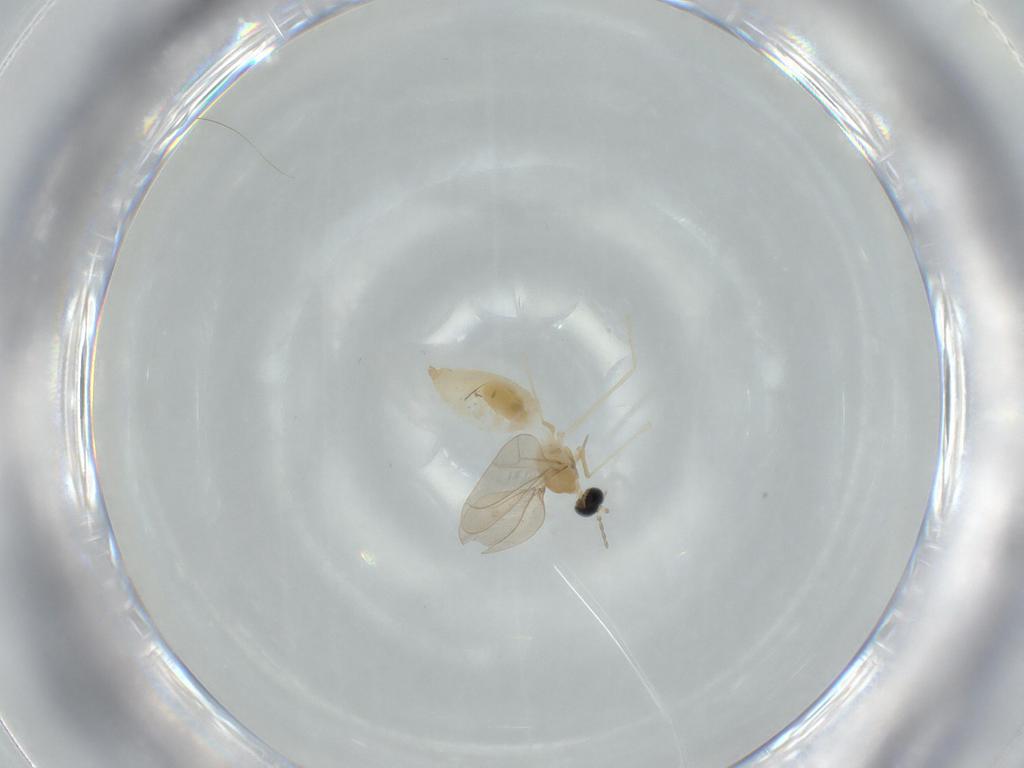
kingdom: Animalia
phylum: Arthropoda
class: Insecta
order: Diptera
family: Cecidomyiidae
